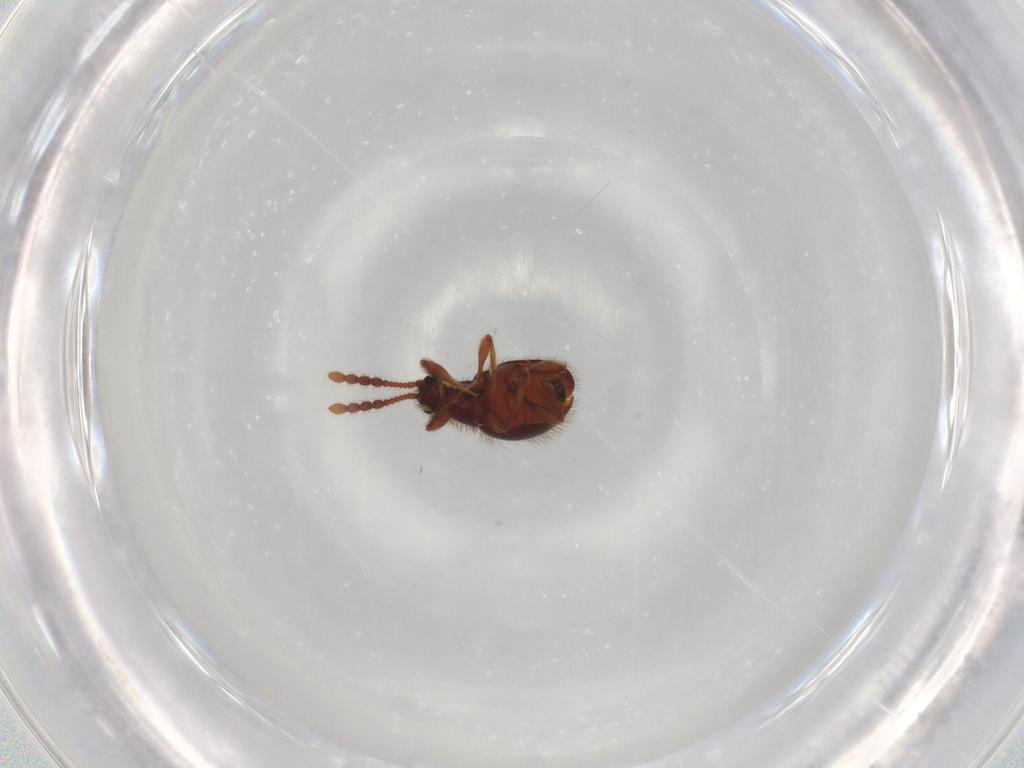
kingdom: Animalia
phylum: Arthropoda
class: Insecta
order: Coleoptera
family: Staphylinidae
